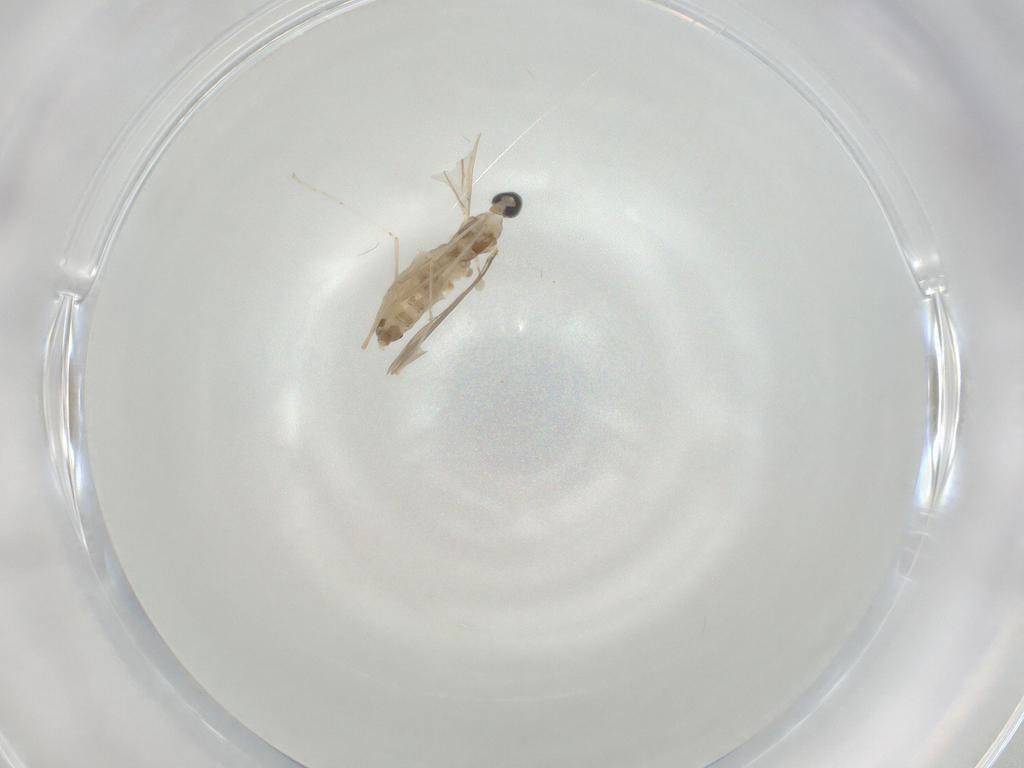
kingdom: Animalia
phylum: Arthropoda
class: Insecta
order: Diptera
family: Cecidomyiidae
